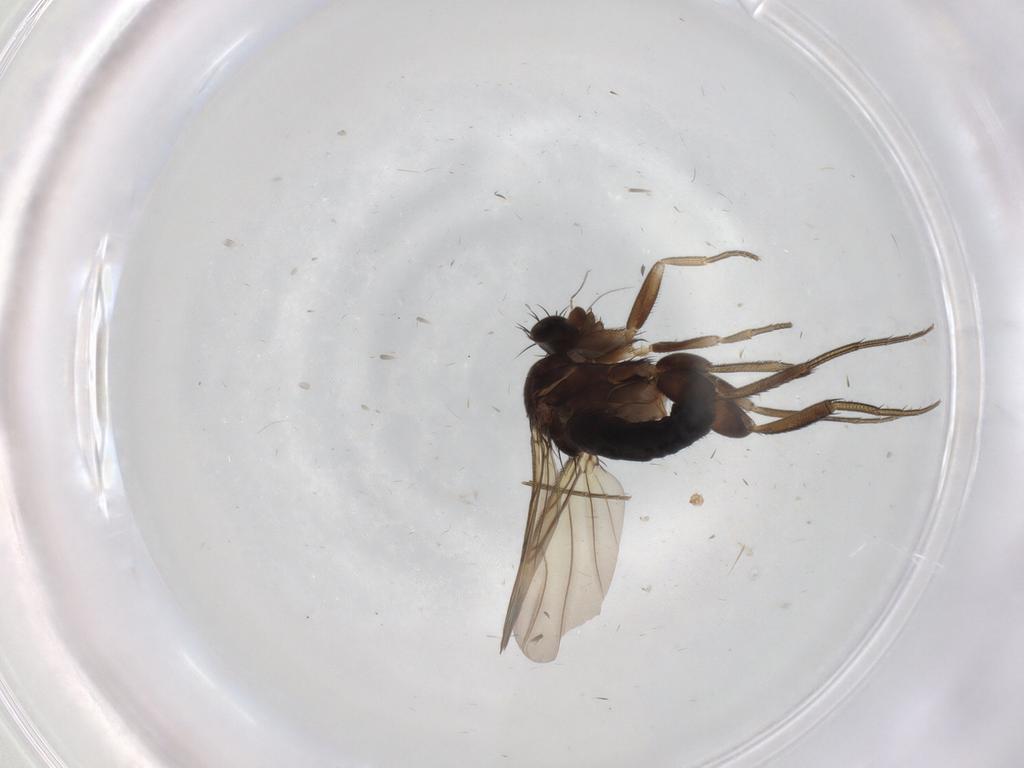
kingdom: Animalia
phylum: Arthropoda
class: Insecta
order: Diptera
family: Phoridae
